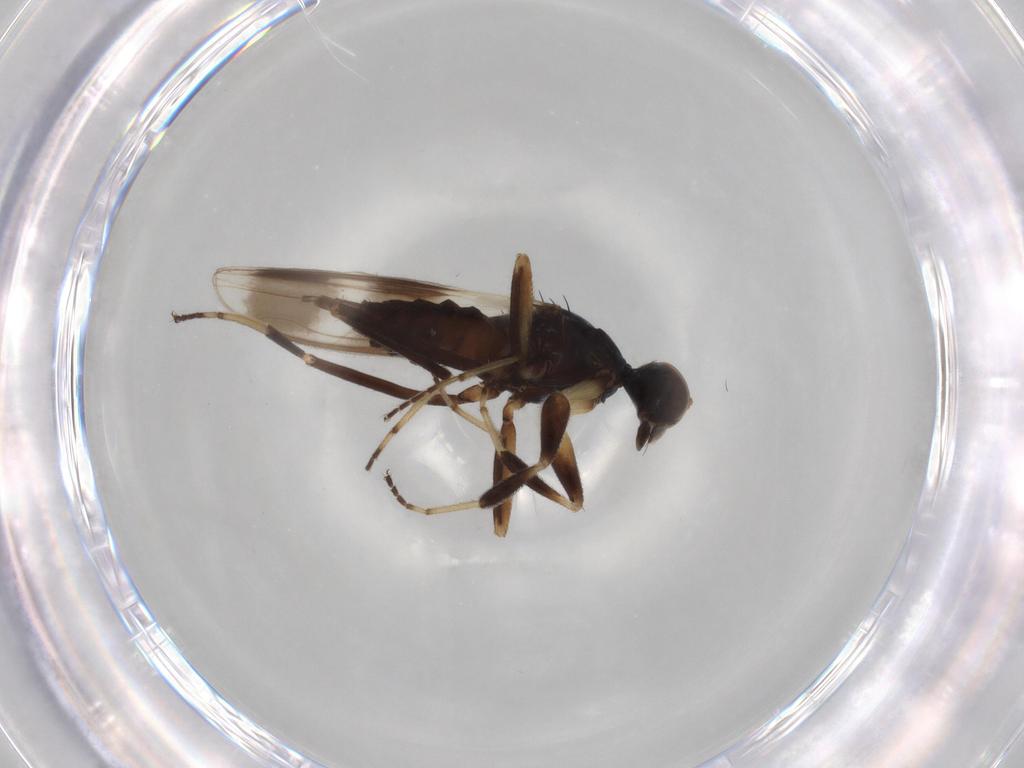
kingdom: Animalia
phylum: Arthropoda
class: Insecta
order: Diptera
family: Hybotidae
